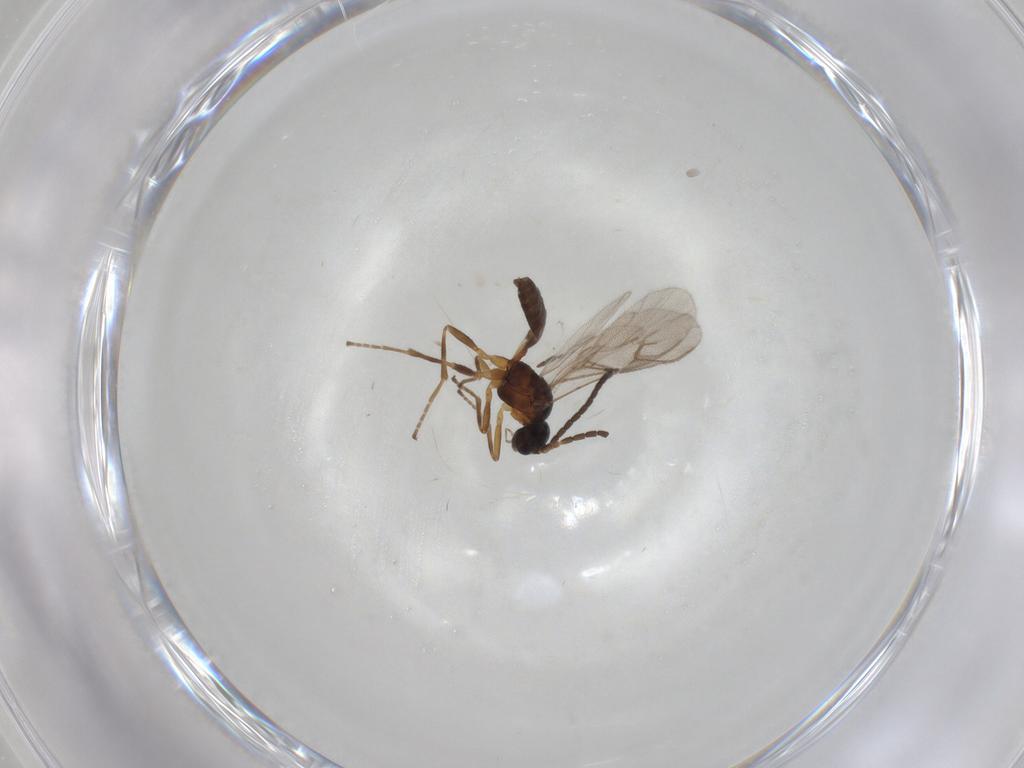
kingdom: Animalia
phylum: Arthropoda
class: Insecta
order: Hymenoptera
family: Braconidae
